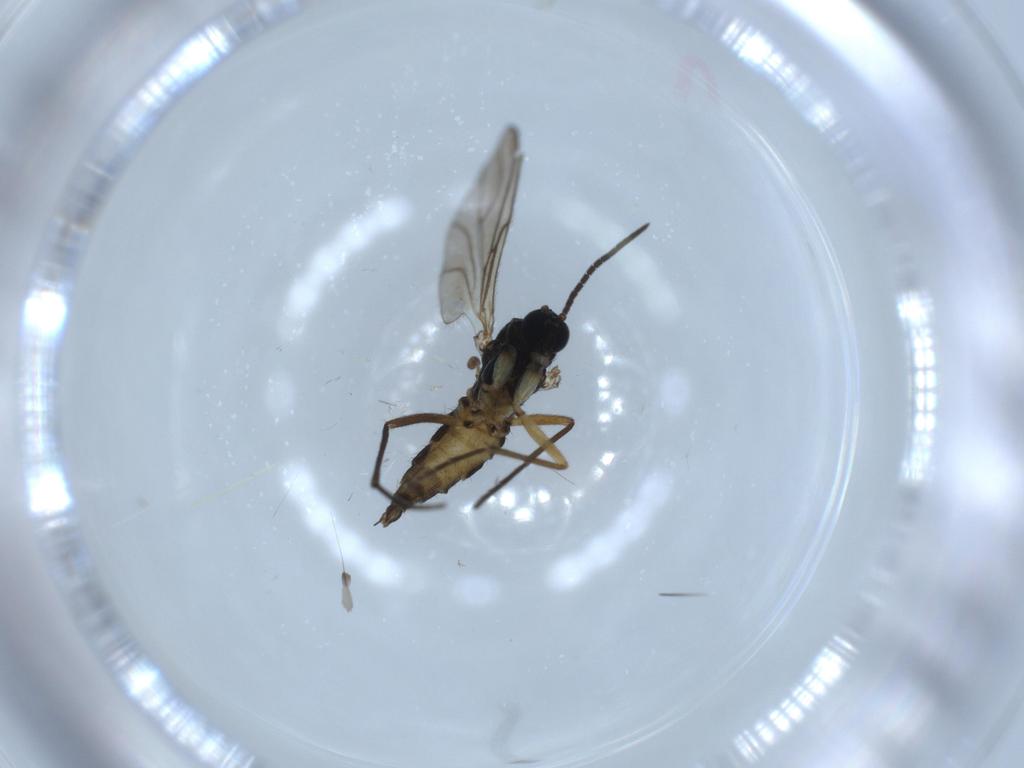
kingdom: Animalia
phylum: Arthropoda
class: Insecta
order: Diptera
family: Sciaridae
